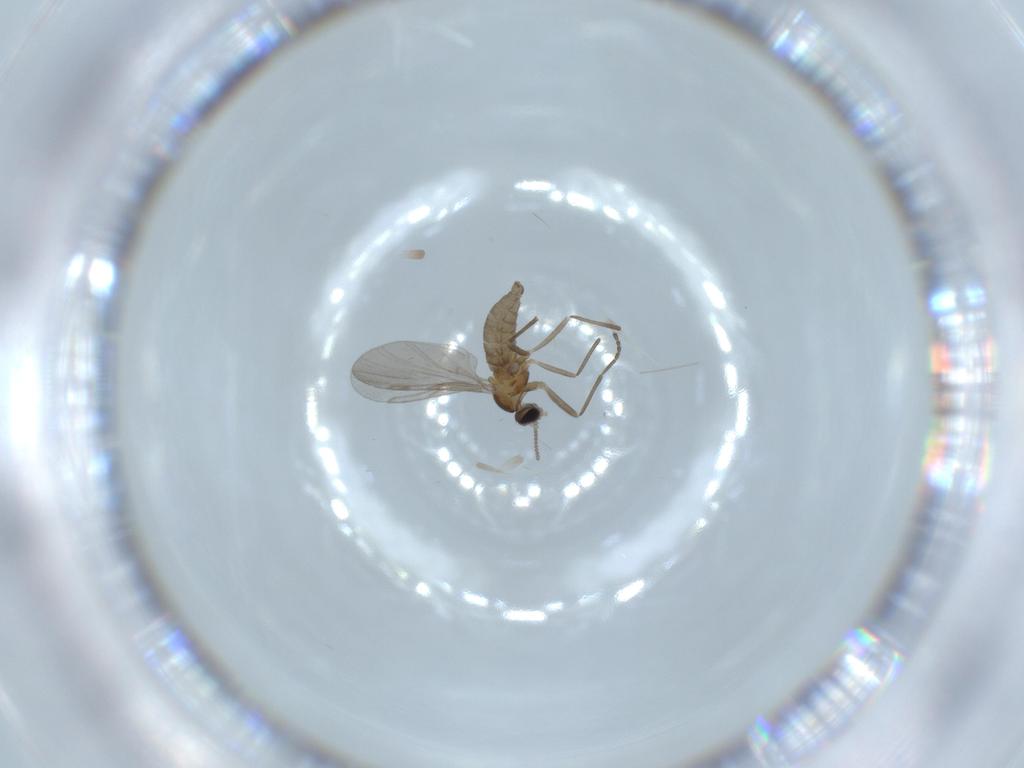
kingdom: Animalia
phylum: Arthropoda
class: Insecta
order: Diptera
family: Cecidomyiidae
